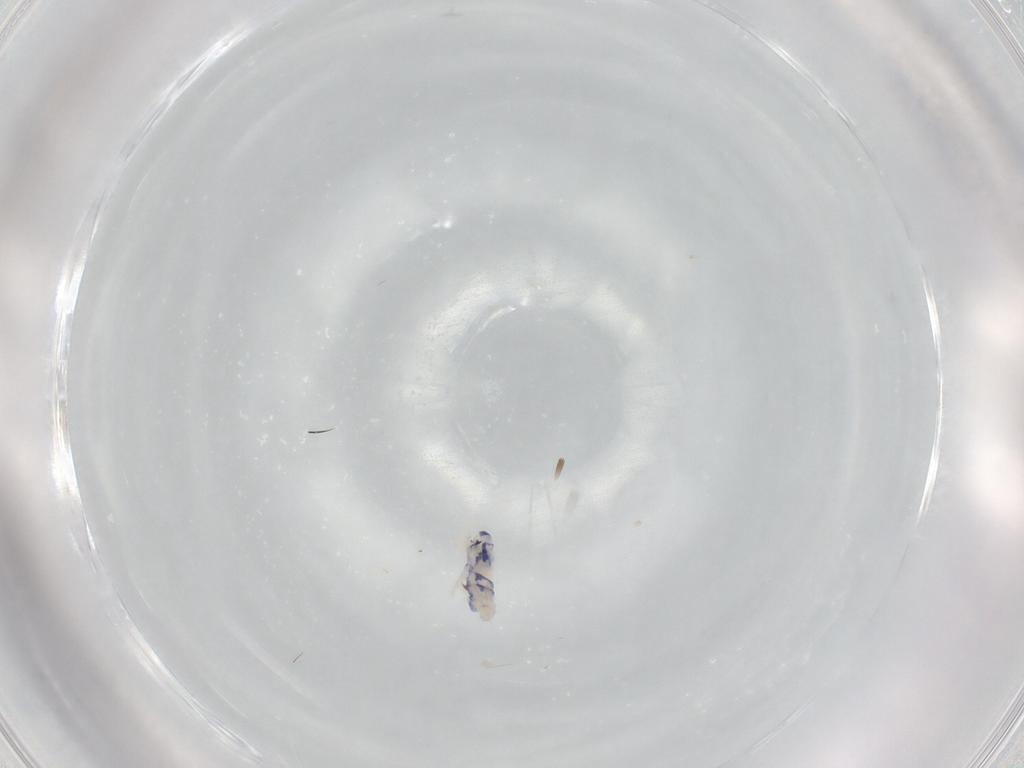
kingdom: Animalia
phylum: Arthropoda
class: Collembola
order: Entomobryomorpha
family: Entomobryidae
